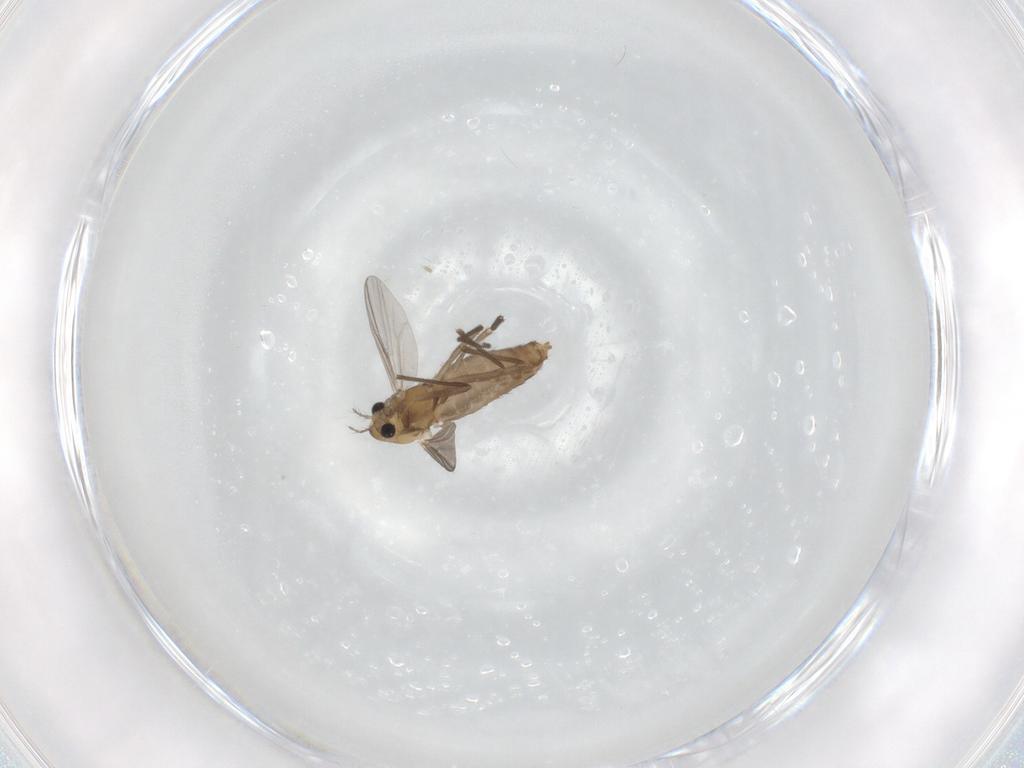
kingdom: Animalia
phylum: Arthropoda
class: Insecta
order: Diptera
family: Chironomidae
